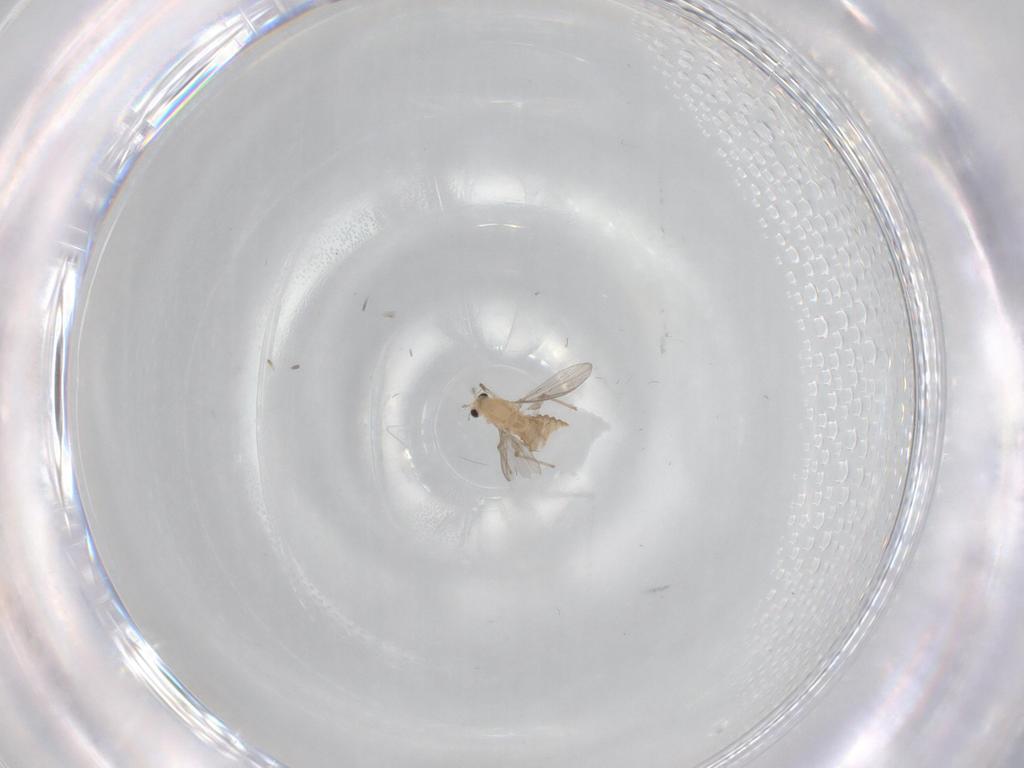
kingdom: Animalia
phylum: Arthropoda
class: Insecta
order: Diptera
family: Chironomidae
